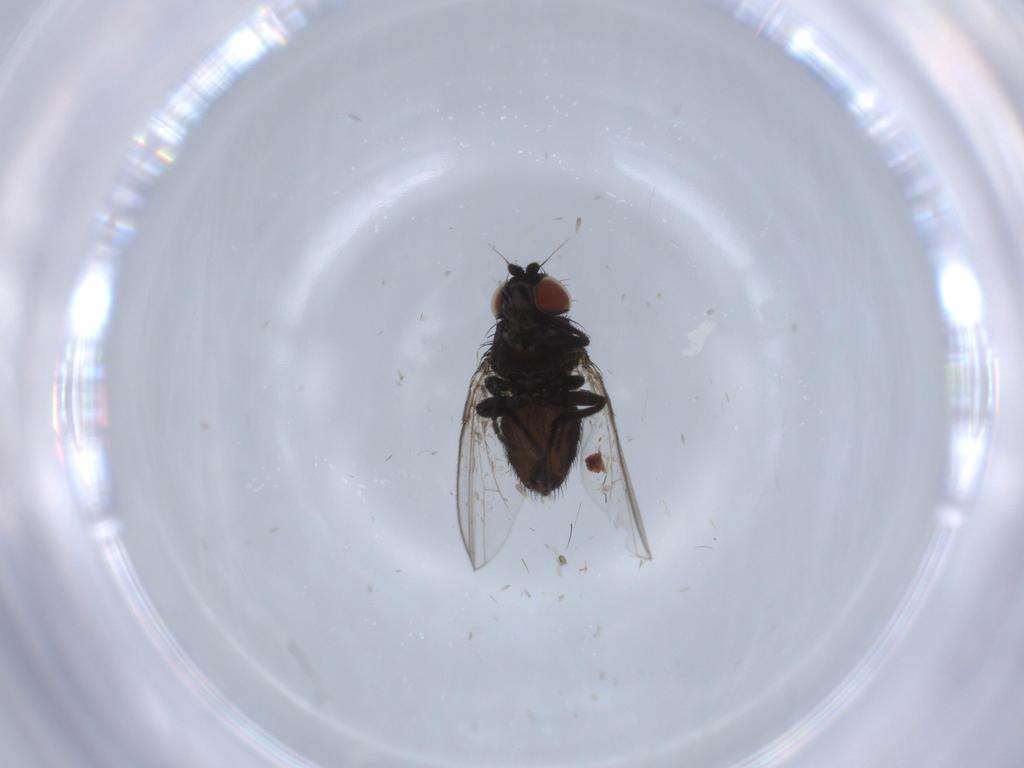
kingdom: Animalia
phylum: Arthropoda
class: Insecta
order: Diptera
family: Dolichopodidae
